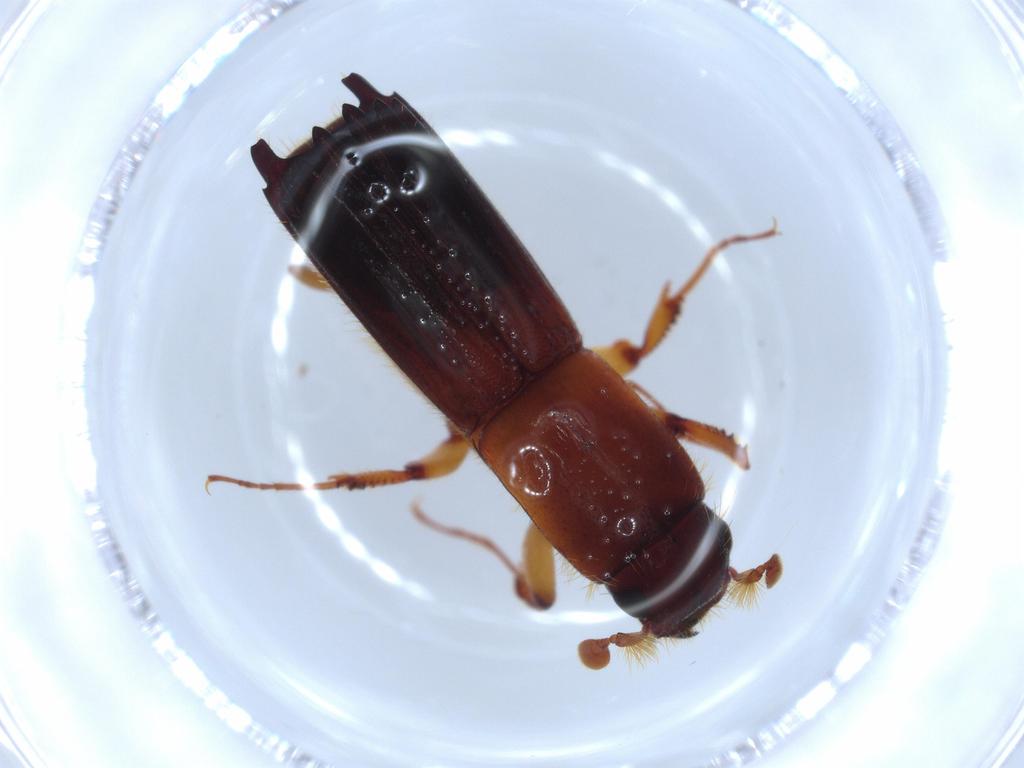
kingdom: Animalia
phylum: Arthropoda
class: Insecta
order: Coleoptera
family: Curculionidae
